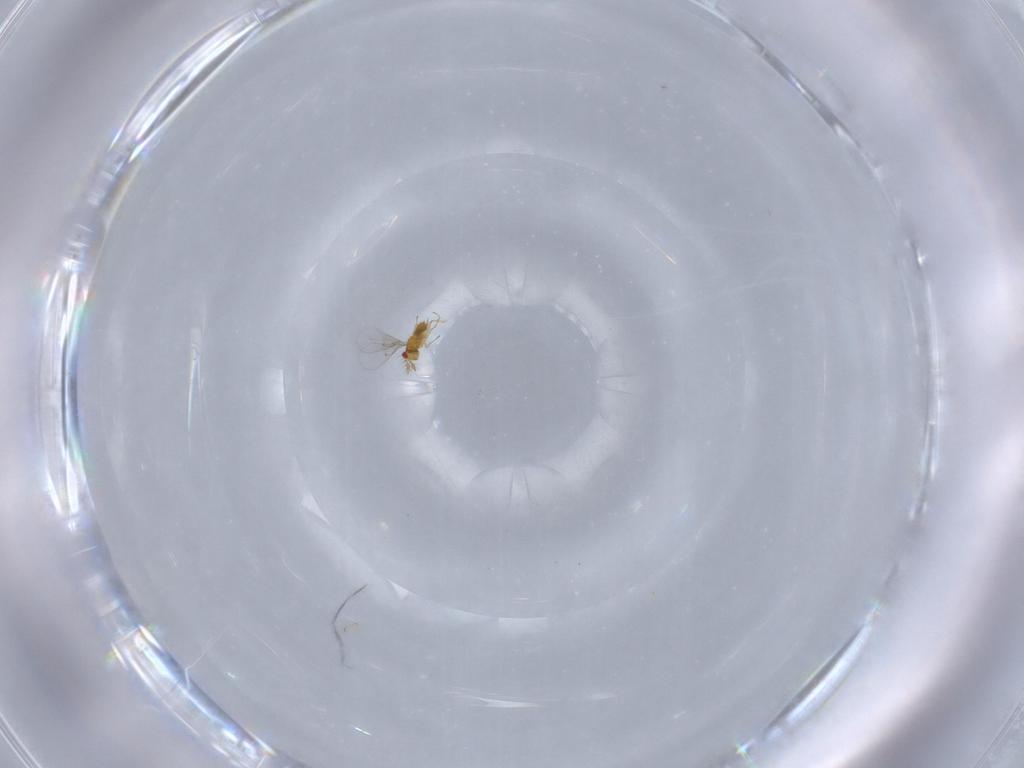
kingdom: Animalia
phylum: Arthropoda
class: Insecta
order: Hymenoptera
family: Trichogrammatidae
